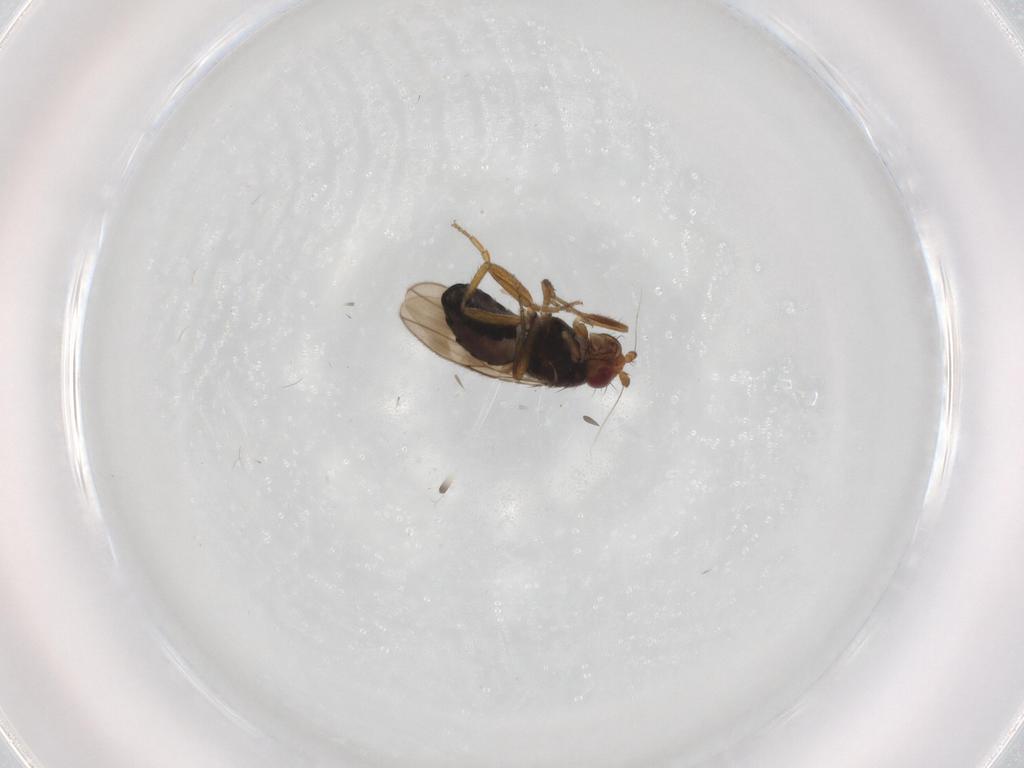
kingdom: Animalia
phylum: Arthropoda
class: Insecta
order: Diptera
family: Sphaeroceridae
